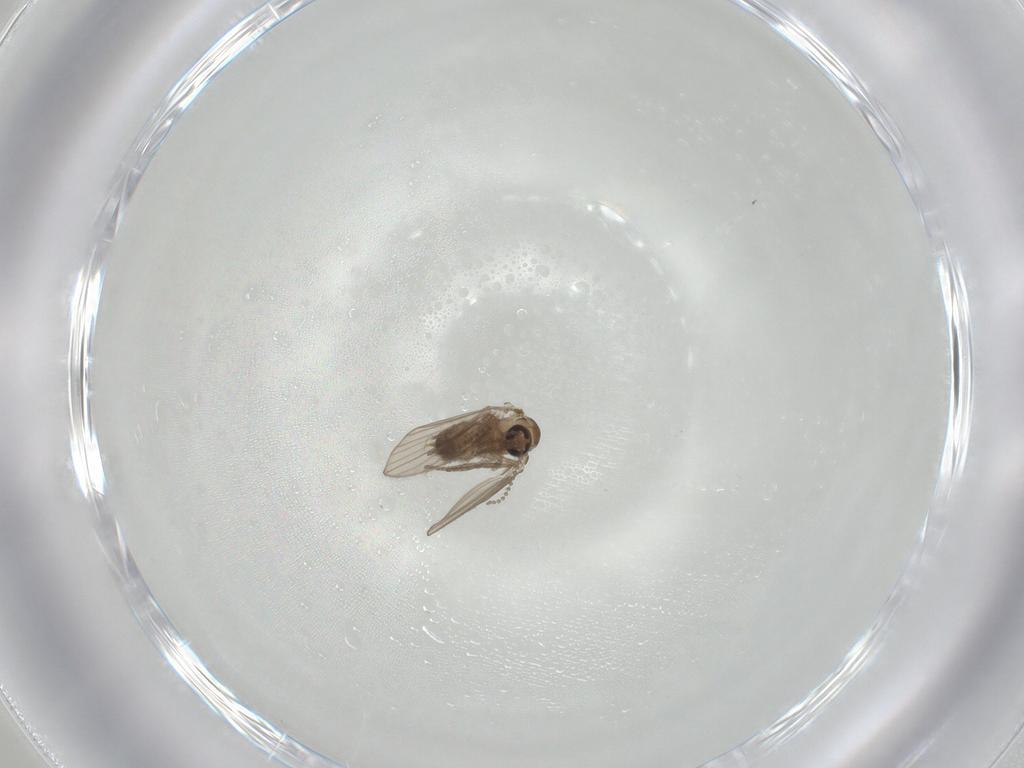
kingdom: Animalia
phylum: Arthropoda
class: Insecta
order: Diptera
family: Psychodidae
